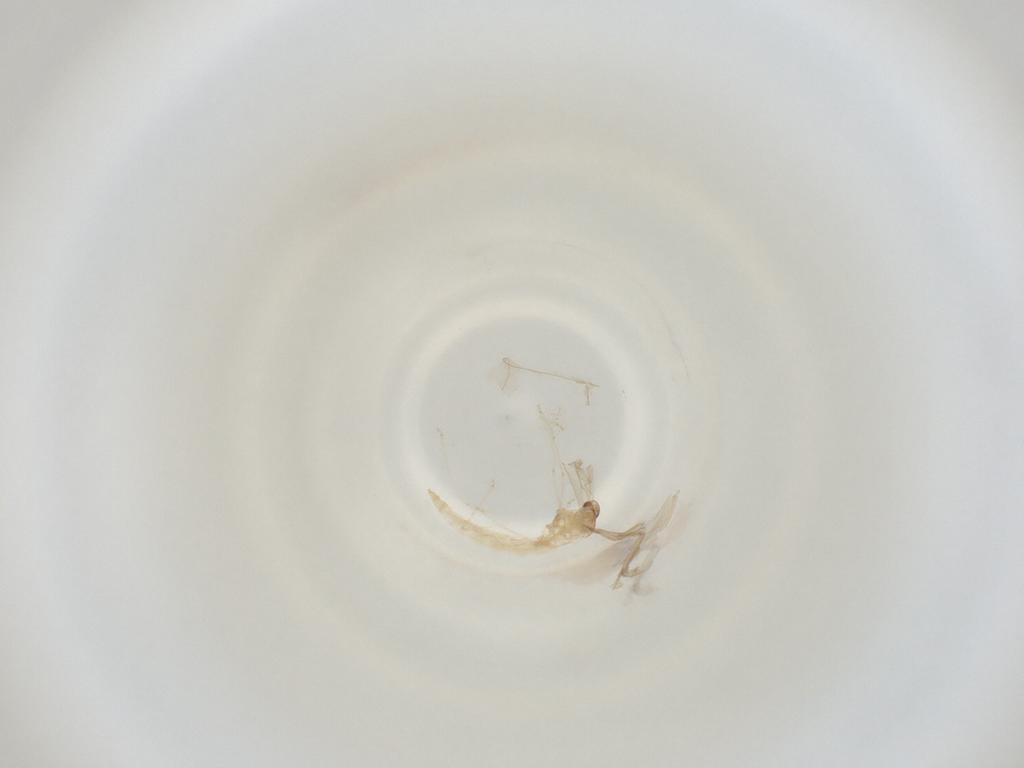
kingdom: Animalia
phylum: Arthropoda
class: Insecta
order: Diptera
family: Cecidomyiidae
